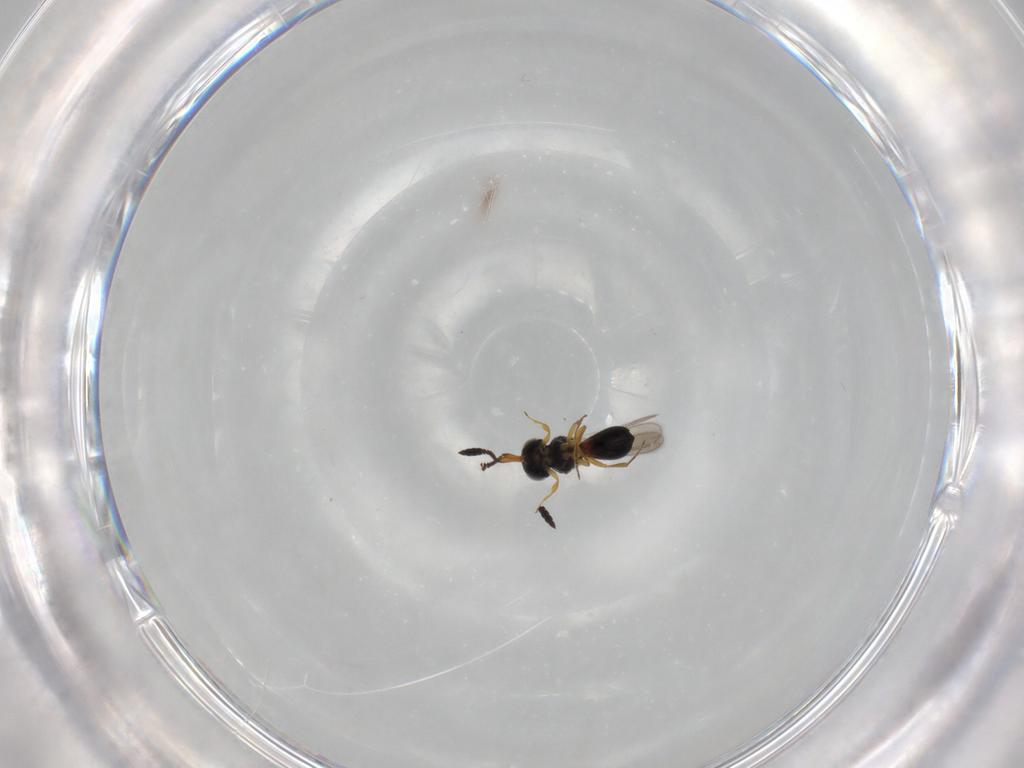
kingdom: Animalia
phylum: Arthropoda
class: Insecta
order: Hymenoptera
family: Scelionidae
